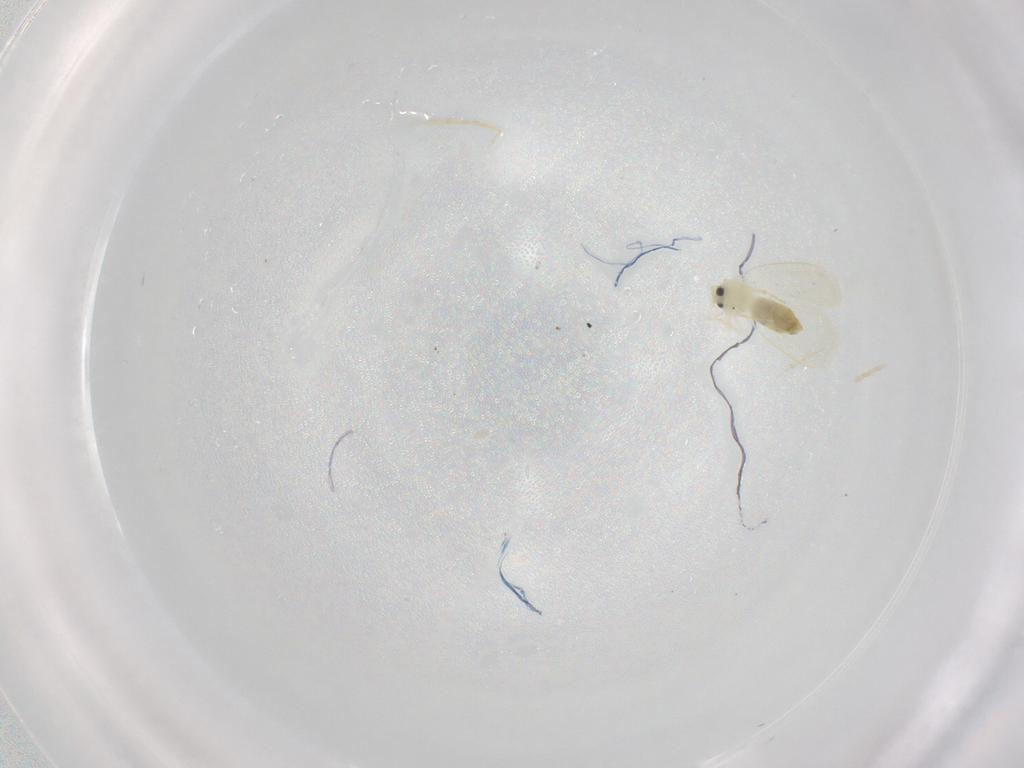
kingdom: Animalia
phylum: Arthropoda
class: Insecta
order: Hemiptera
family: Aleyrodidae
